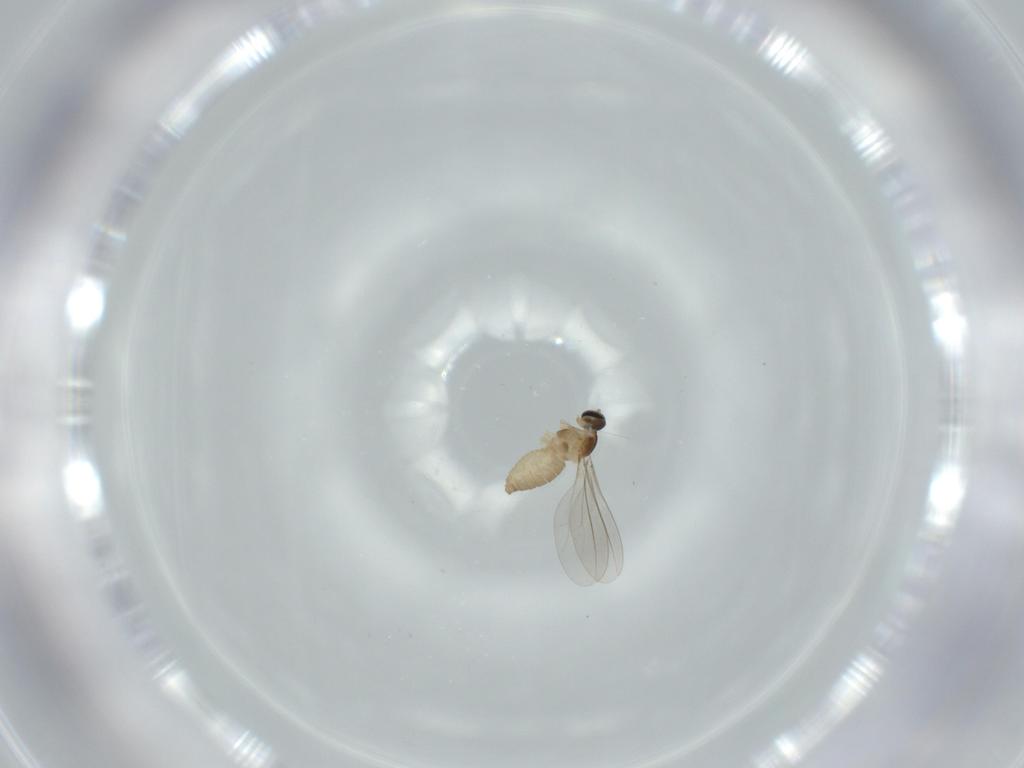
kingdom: Animalia
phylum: Arthropoda
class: Insecta
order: Diptera
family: Cecidomyiidae
